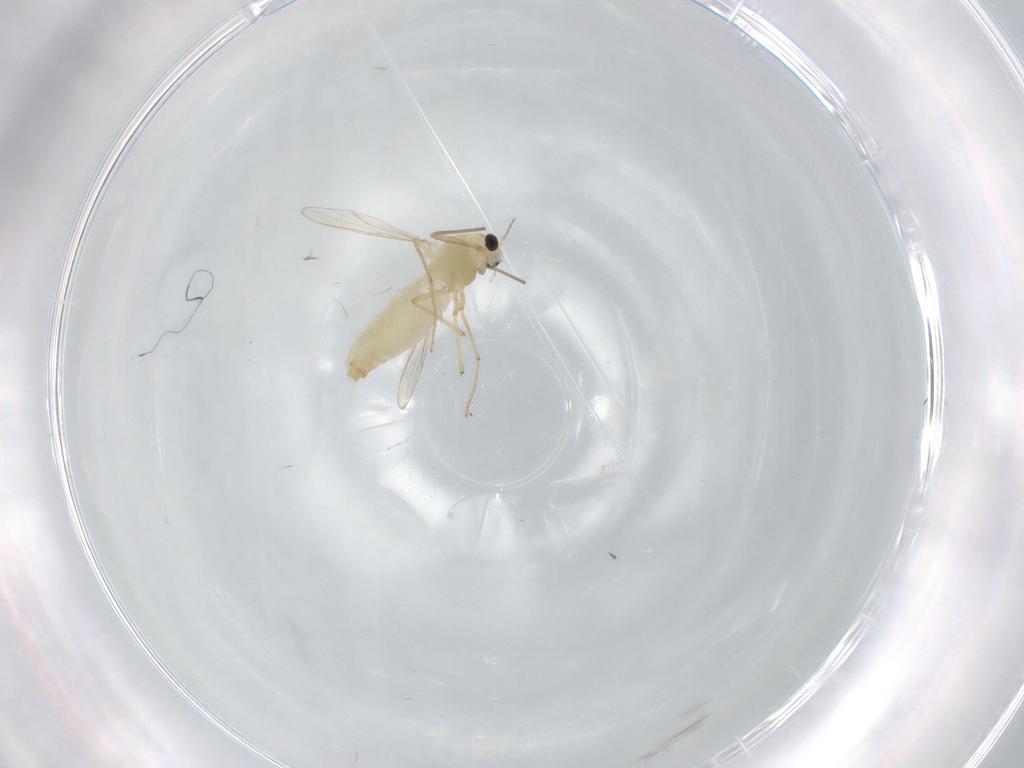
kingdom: Animalia
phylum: Arthropoda
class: Insecta
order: Diptera
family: Chironomidae
